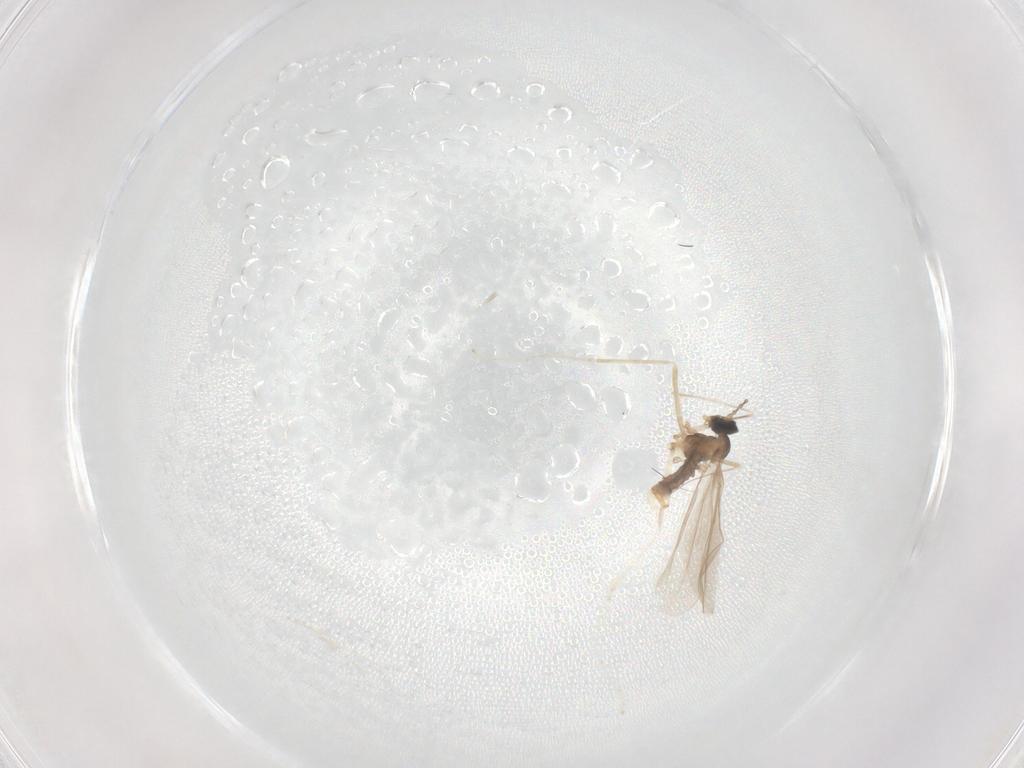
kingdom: Animalia
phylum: Arthropoda
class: Insecta
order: Diptera
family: Cecidomyiidae
